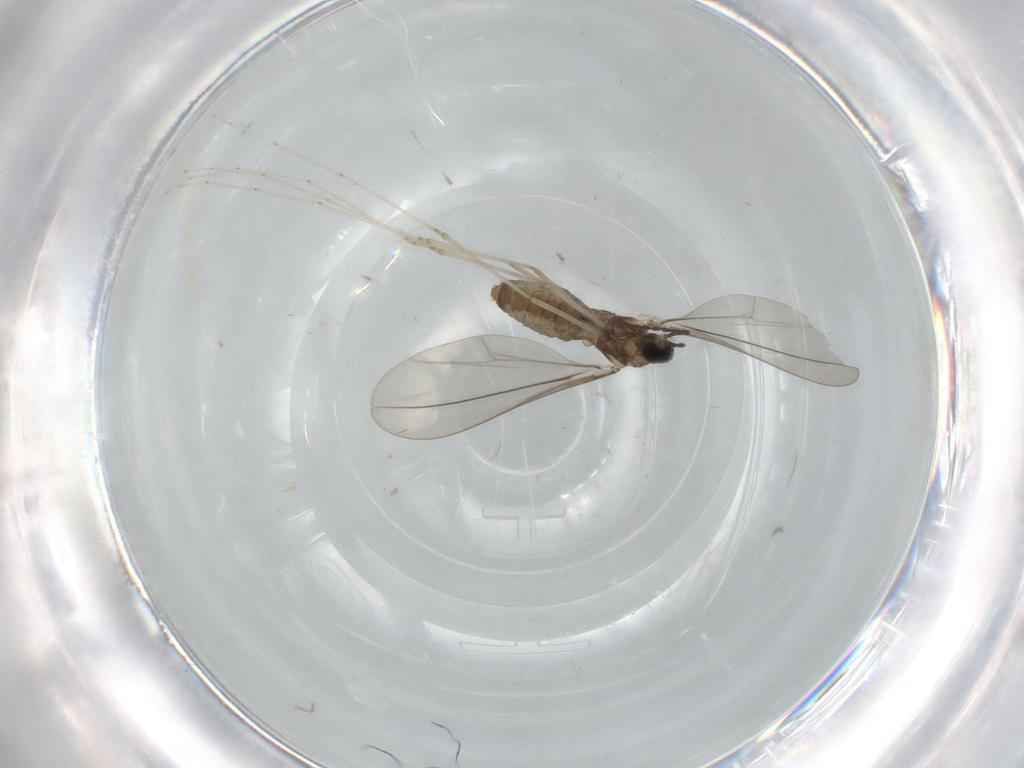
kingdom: Animalia
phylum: Arthropoda
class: Insecta
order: Diptera
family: Cecidomyiidae
